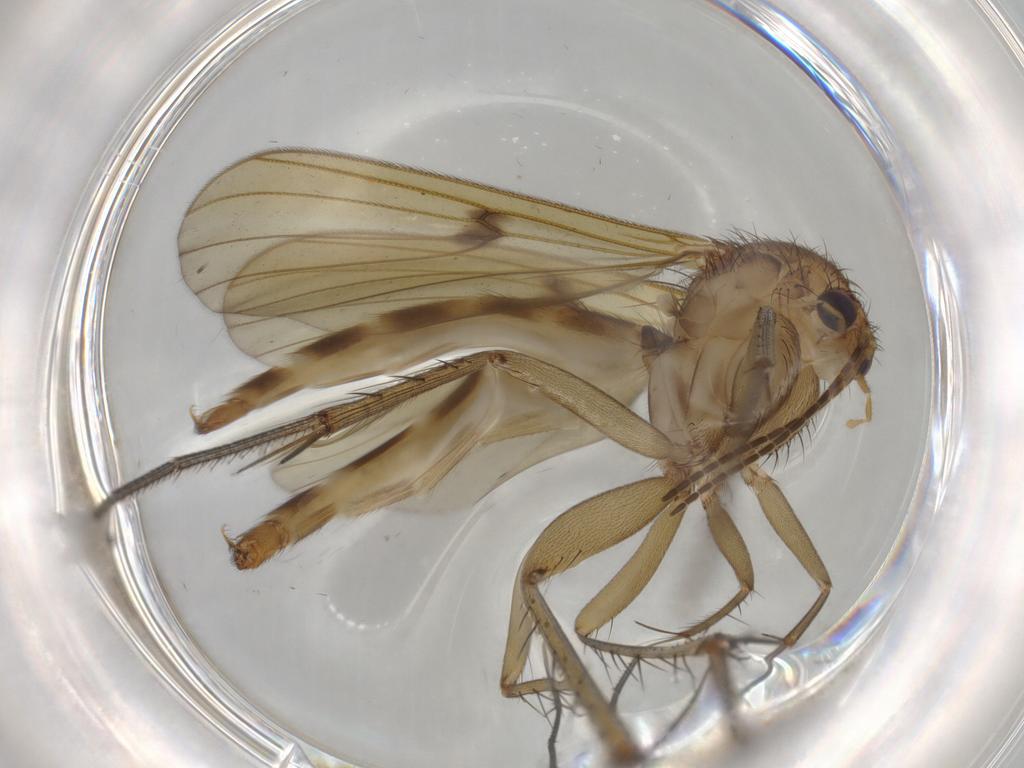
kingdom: Animalia
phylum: Arthropoda
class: Insecta
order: Diptera
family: Mycetophilidae
